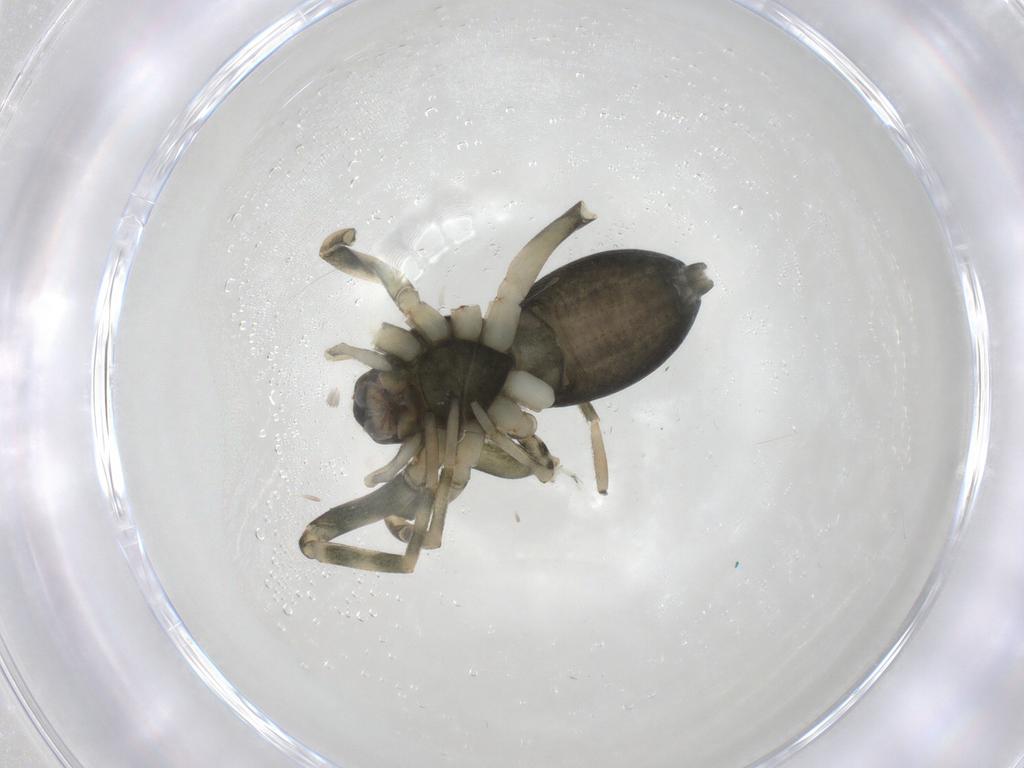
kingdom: Animalia
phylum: Arthropoda
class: Arachnida
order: Araneae
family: Trachelidae
